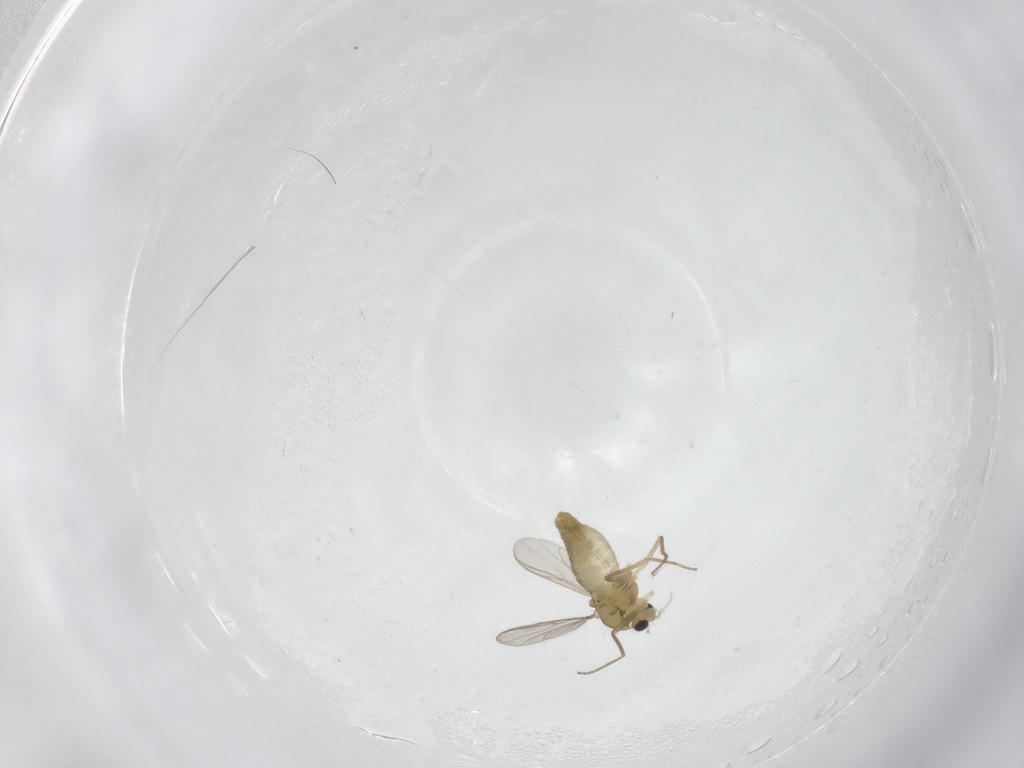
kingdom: Animalia
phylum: Arthropoda
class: Insecta
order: Diptera
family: Chironomidae
